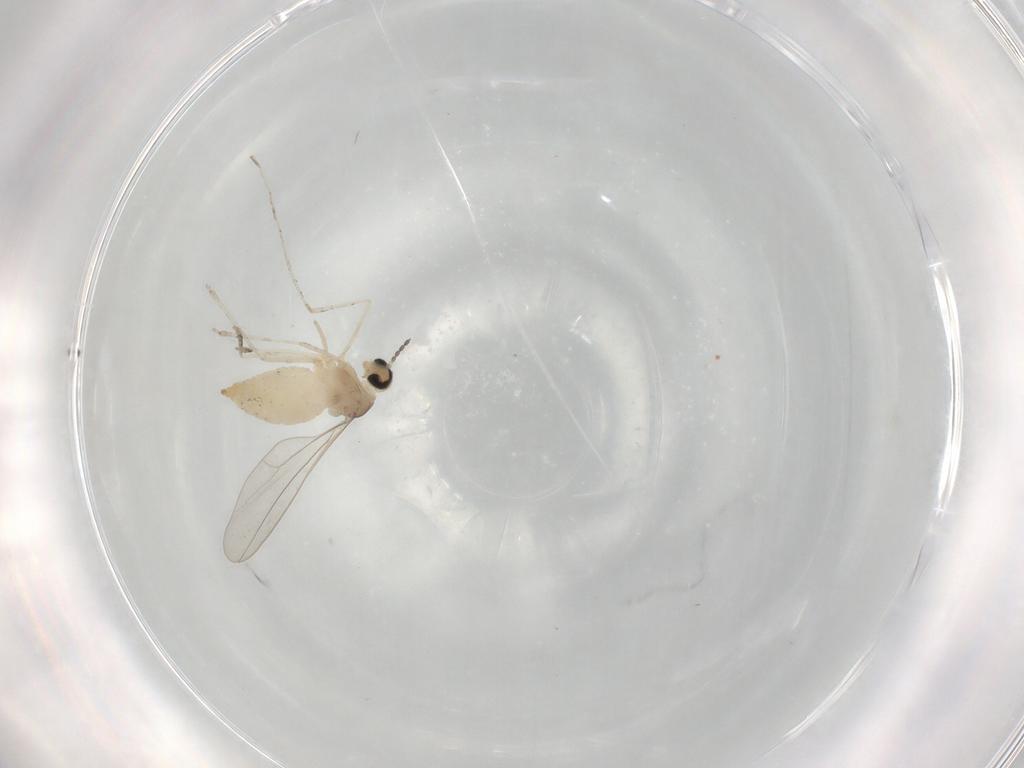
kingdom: Animalia
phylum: Arthropoda
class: Insecta
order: Diptera
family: Cecidomyiidae
